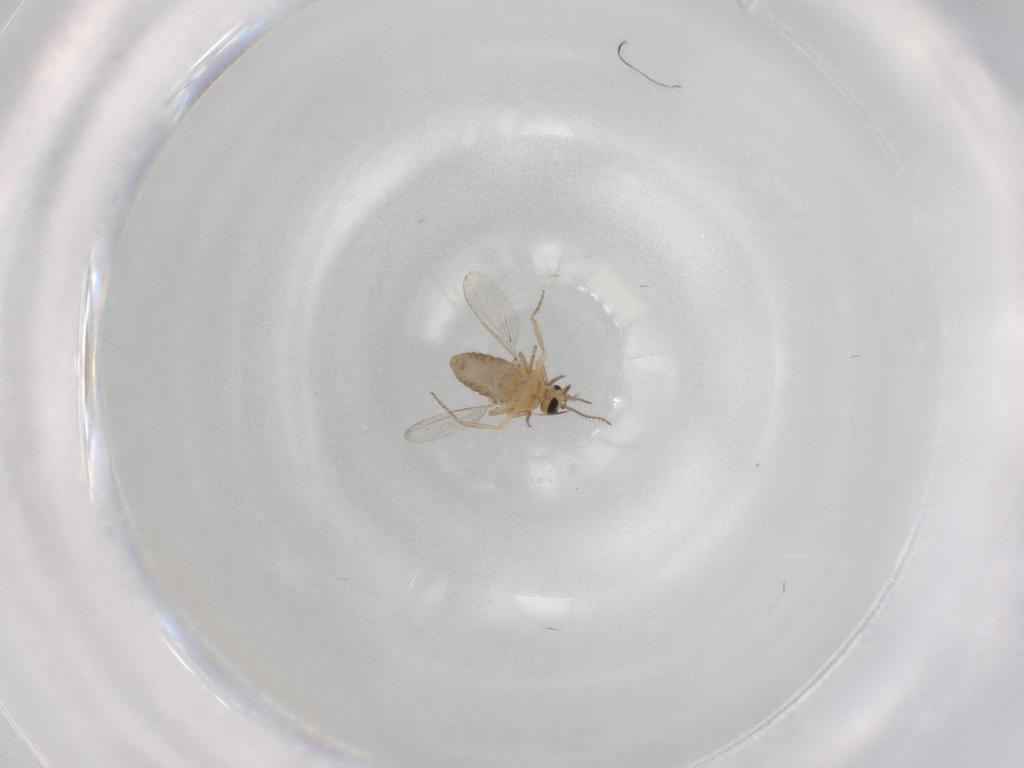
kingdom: Animalia
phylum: Arthropoda
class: Insecta
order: Diptera
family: Ceratopogonidae
